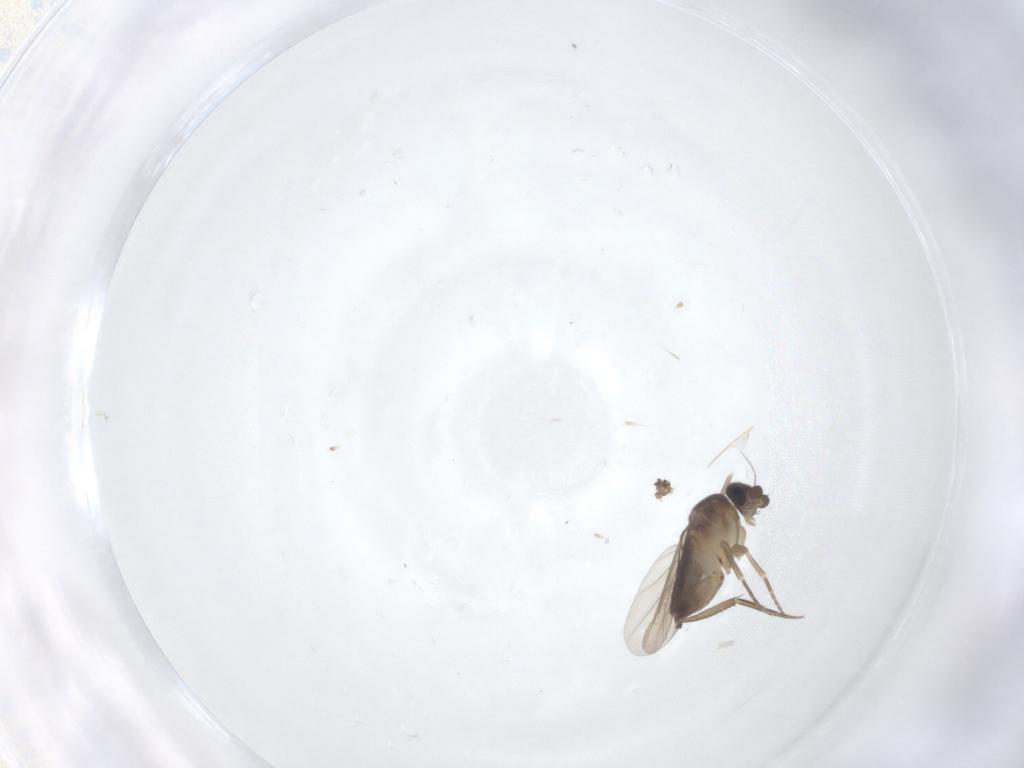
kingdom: Animalia
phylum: Arthropoda
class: Insecta
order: Diptera
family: Phoridae
